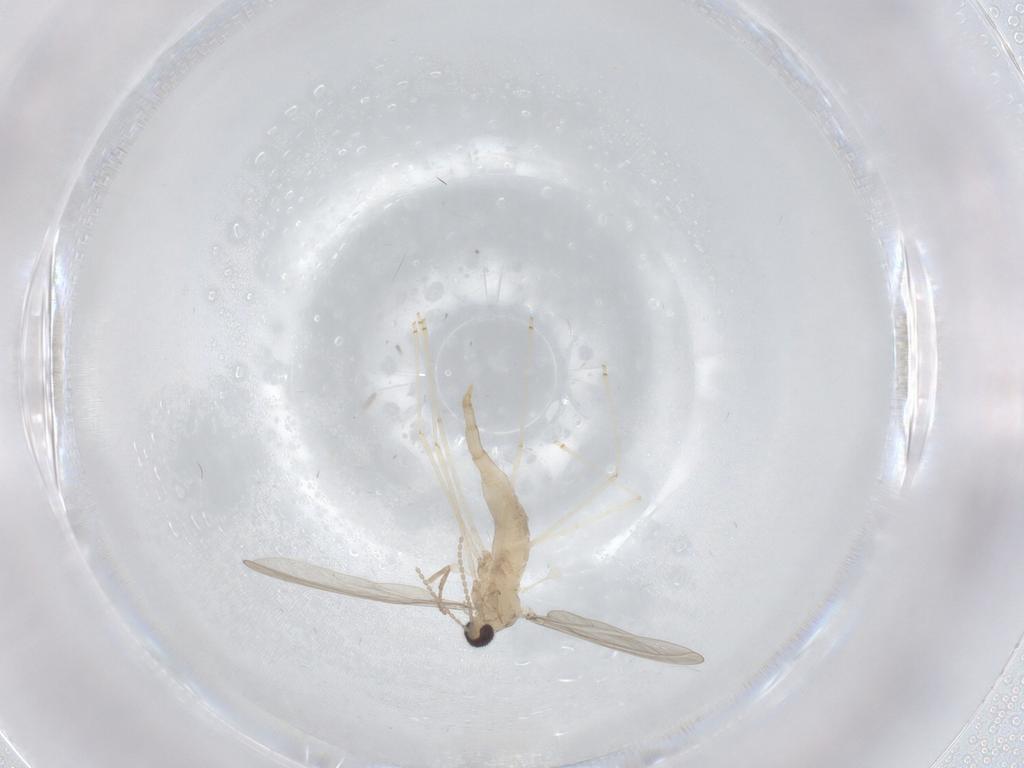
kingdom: Animalia
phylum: Arthropoda
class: Insecta
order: Diptera
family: Cecidomyiidae
